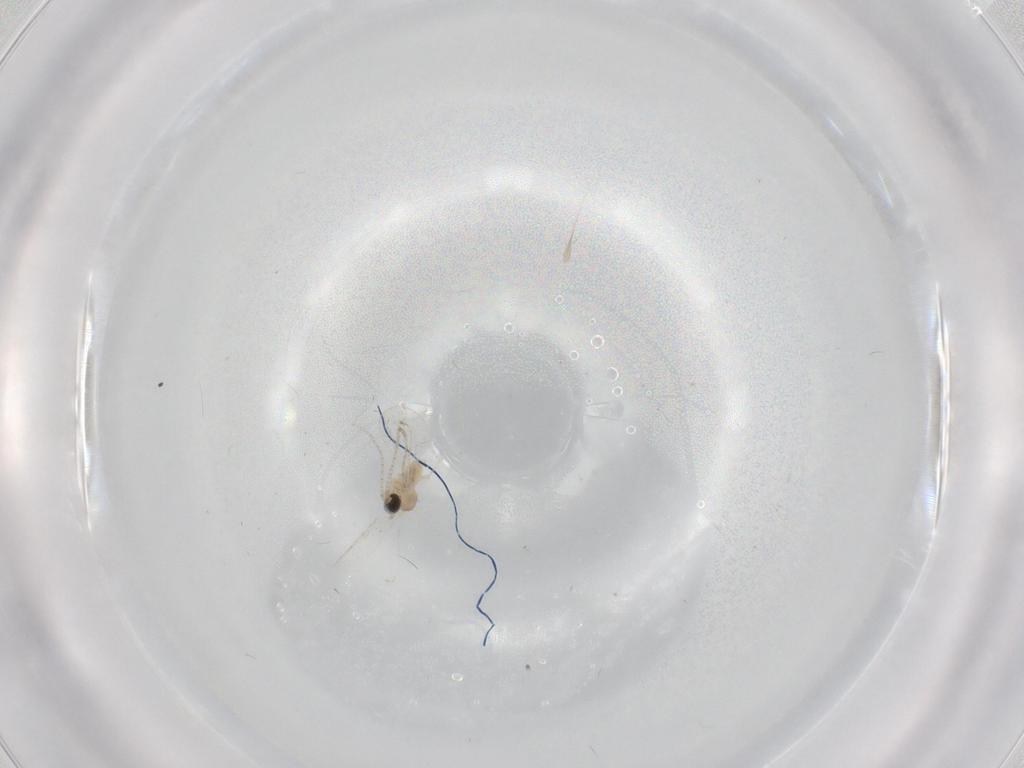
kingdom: Animalia
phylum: Arthropoda
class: Insecta
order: Diptera
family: Cecidomyiidae
